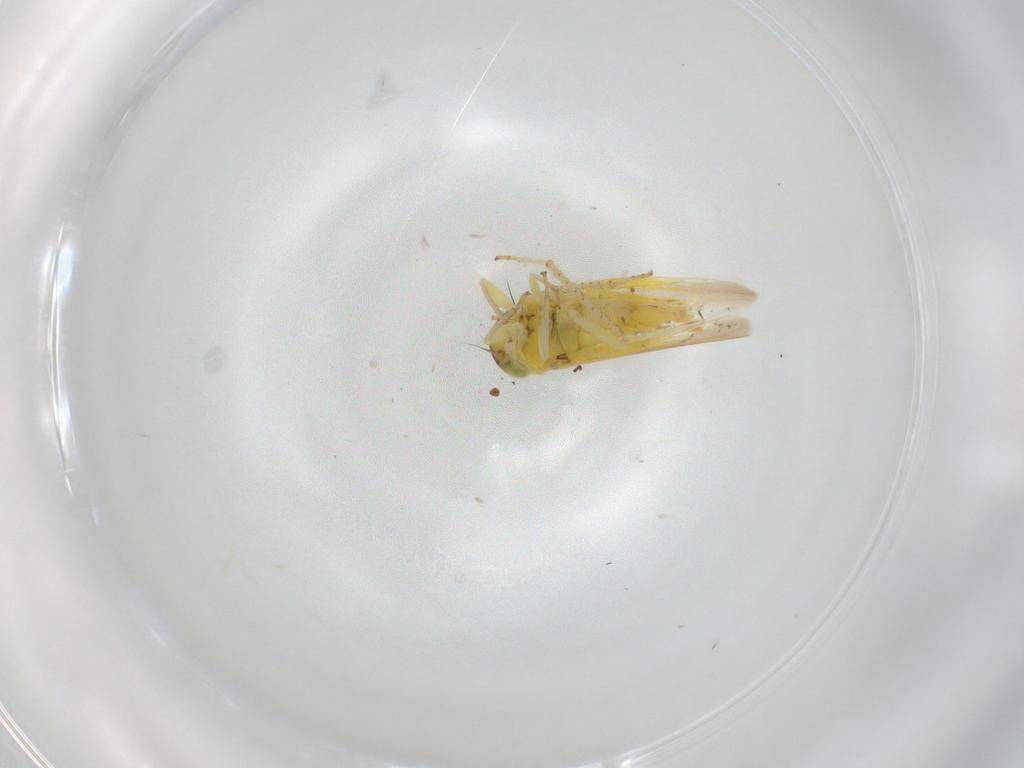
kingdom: Animalia
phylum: Arthropoda
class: Insecta
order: Hemiptera
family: Cicadellidae
